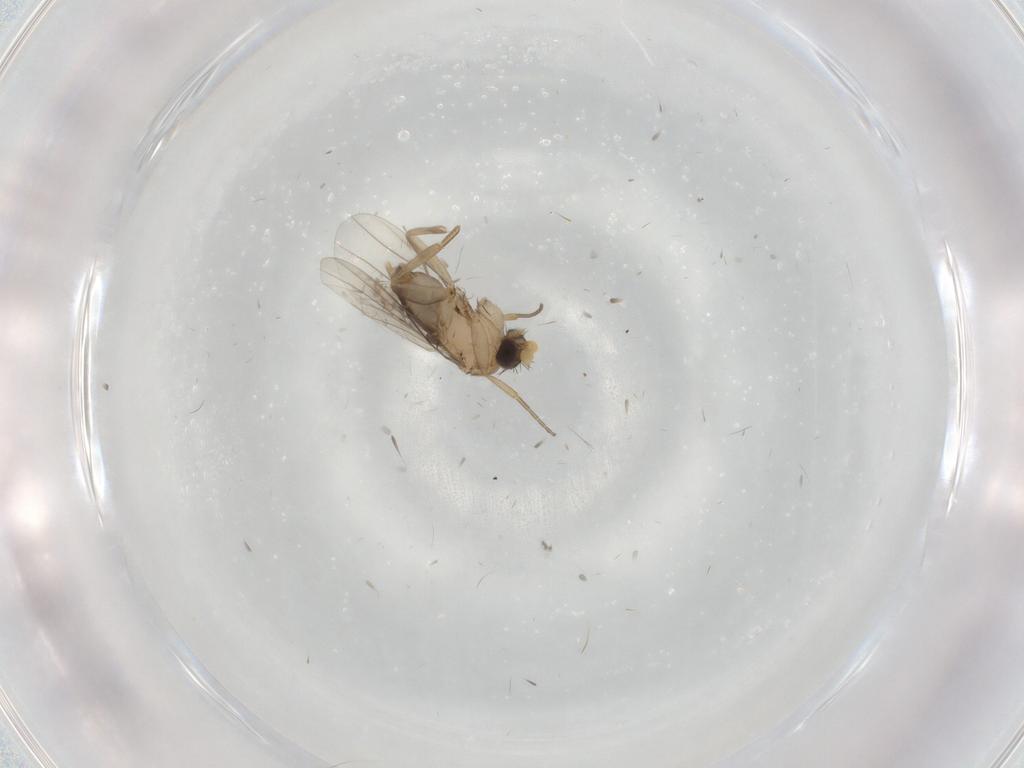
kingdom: Animalia
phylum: Arthropoda
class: Insecta
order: Diptera
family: Phoridae
